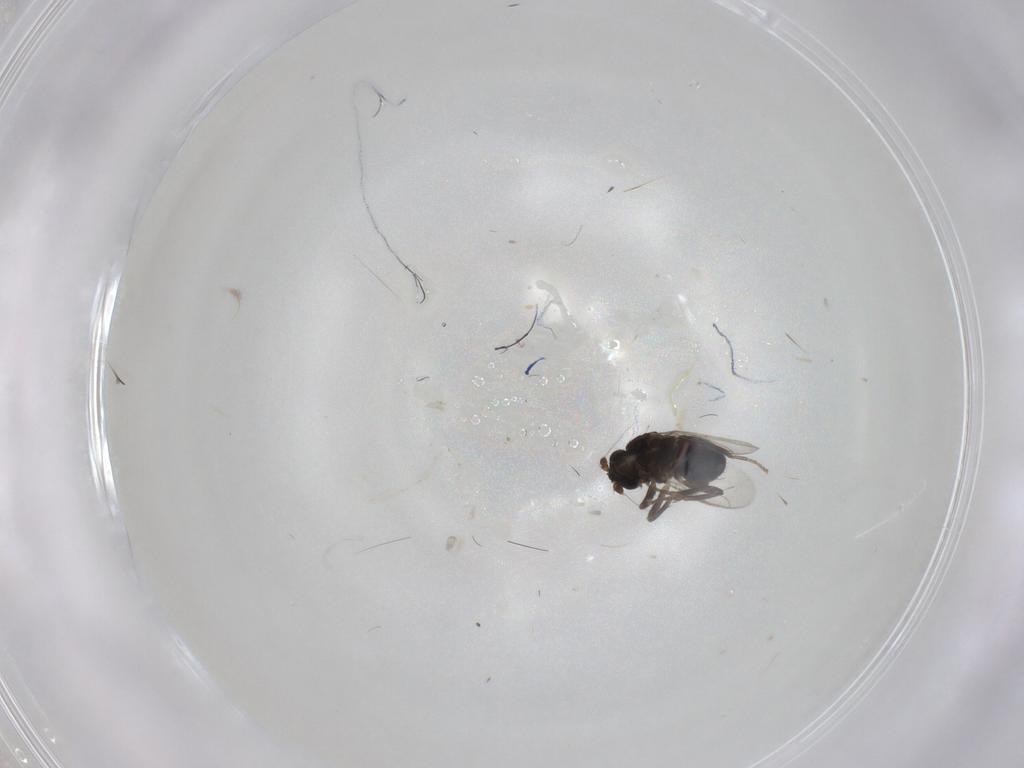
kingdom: Animalia
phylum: Arthropoda
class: Insecta
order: Diptera
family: Sphaeroceridae
